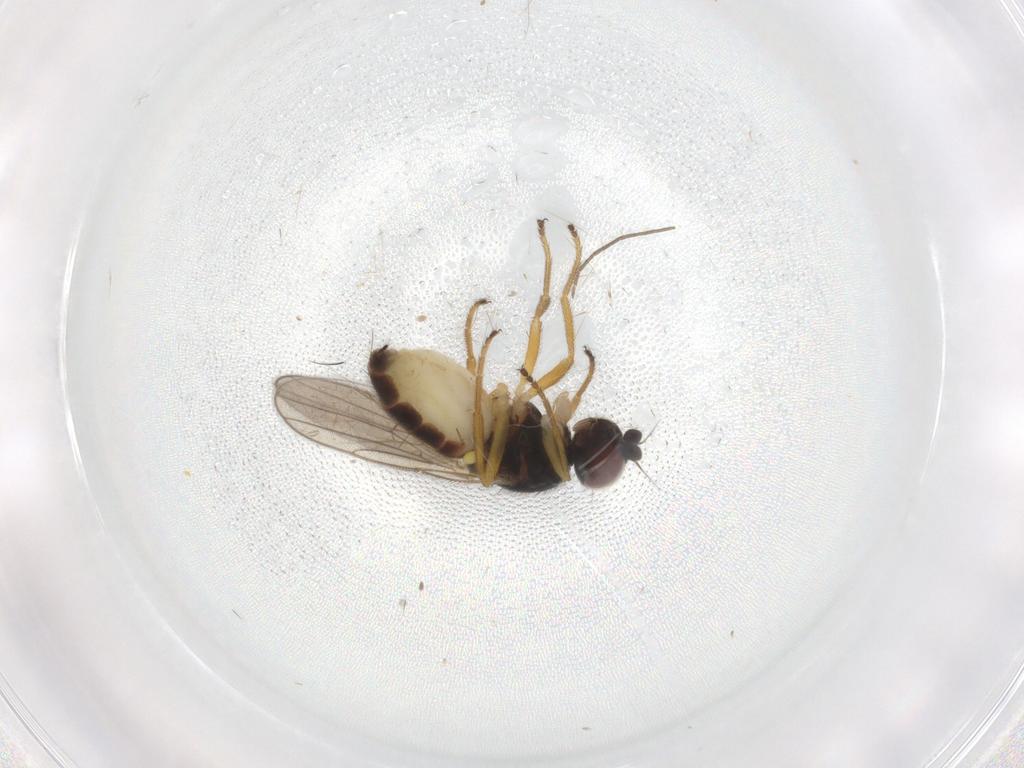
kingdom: Animalia
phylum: Arthropoda
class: Insecta
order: Diptera
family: Chloropidae
